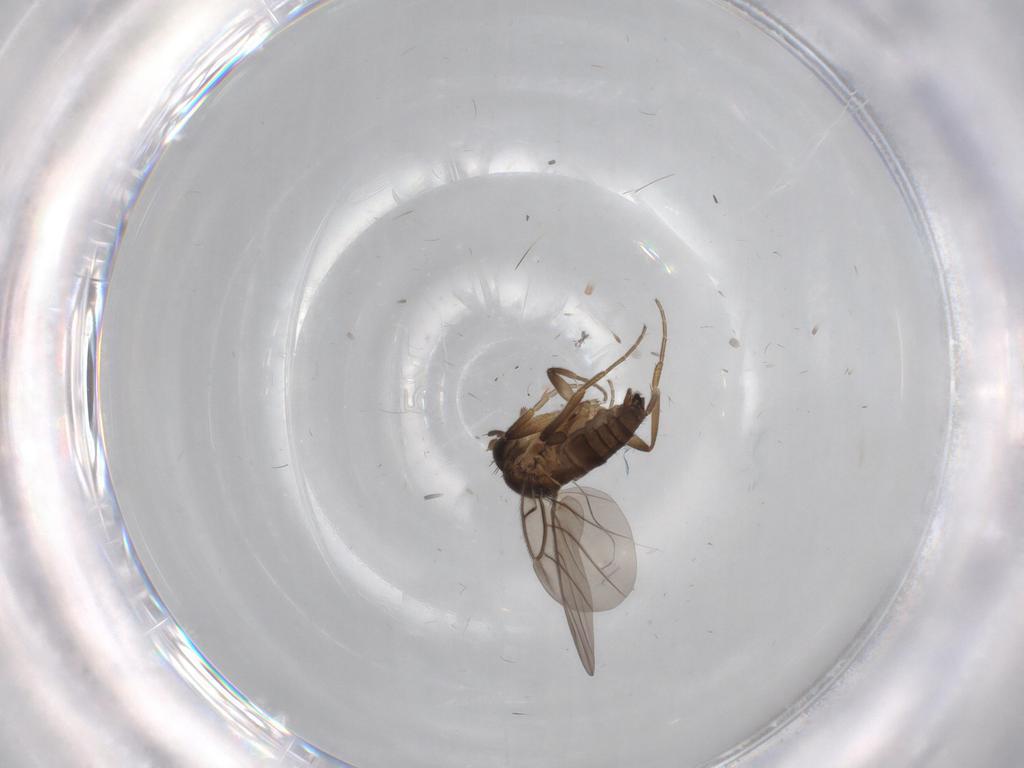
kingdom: Animalia
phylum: Arthropoda
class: Insecta
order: Diptera
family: Phoridae
